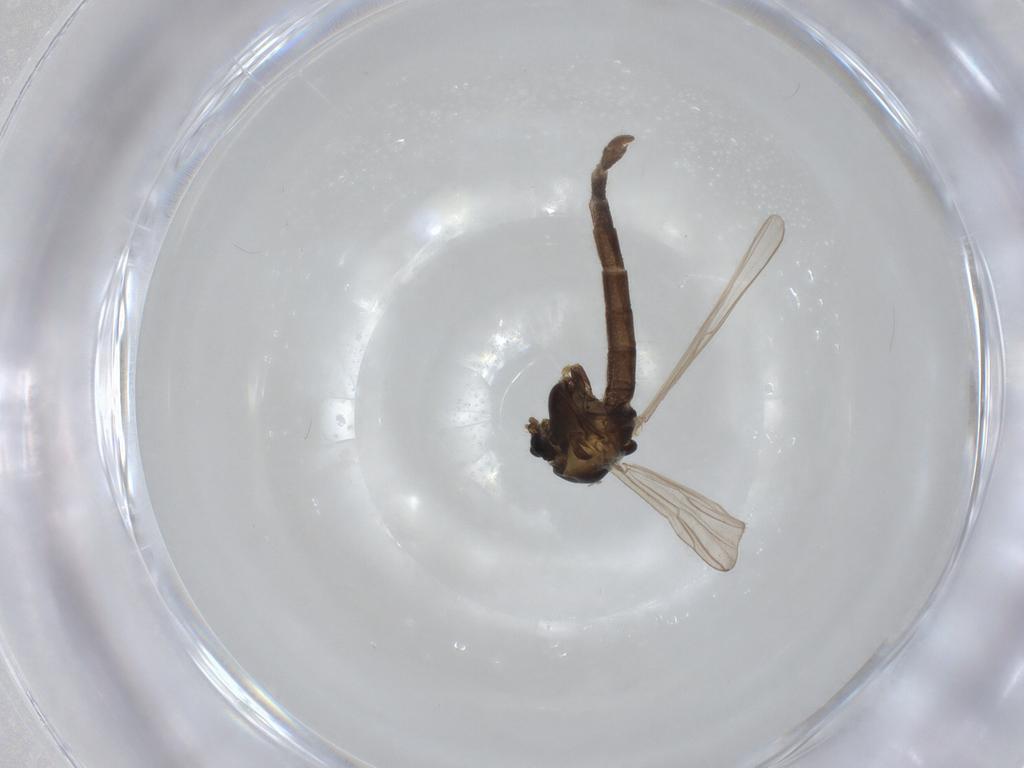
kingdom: Animalia
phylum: Arthropoda
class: Insecta
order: Diptera
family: Chironomidae
